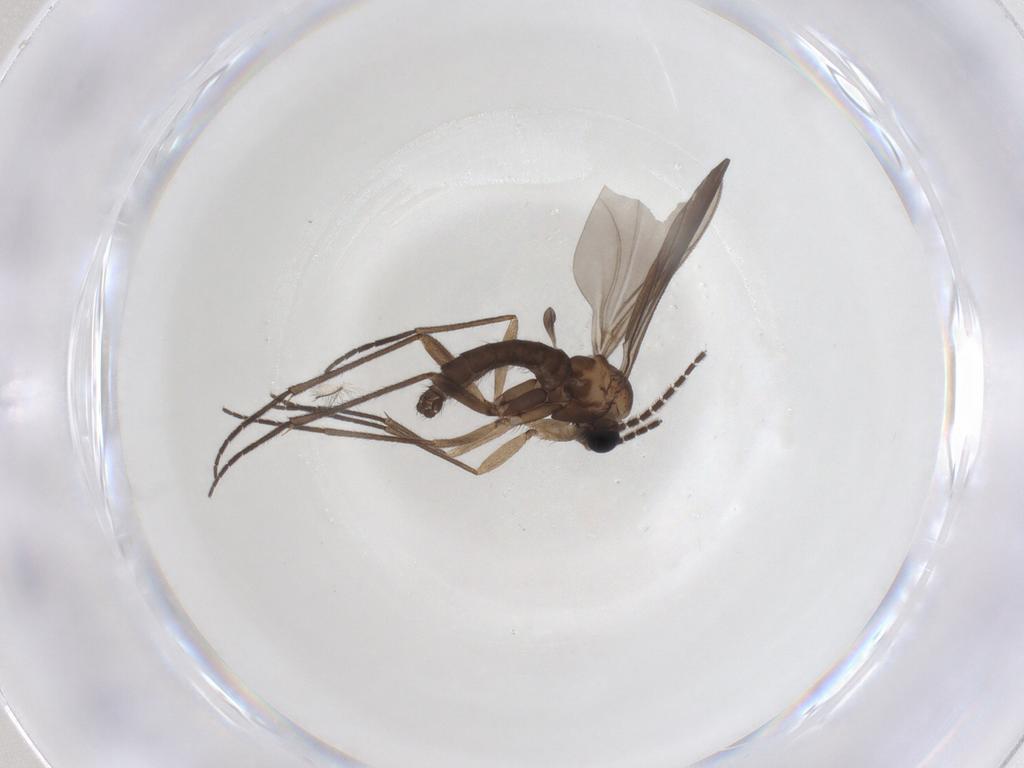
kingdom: Animalia
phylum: Arthropoda
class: Insecta
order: Diptera
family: Sciaridae
